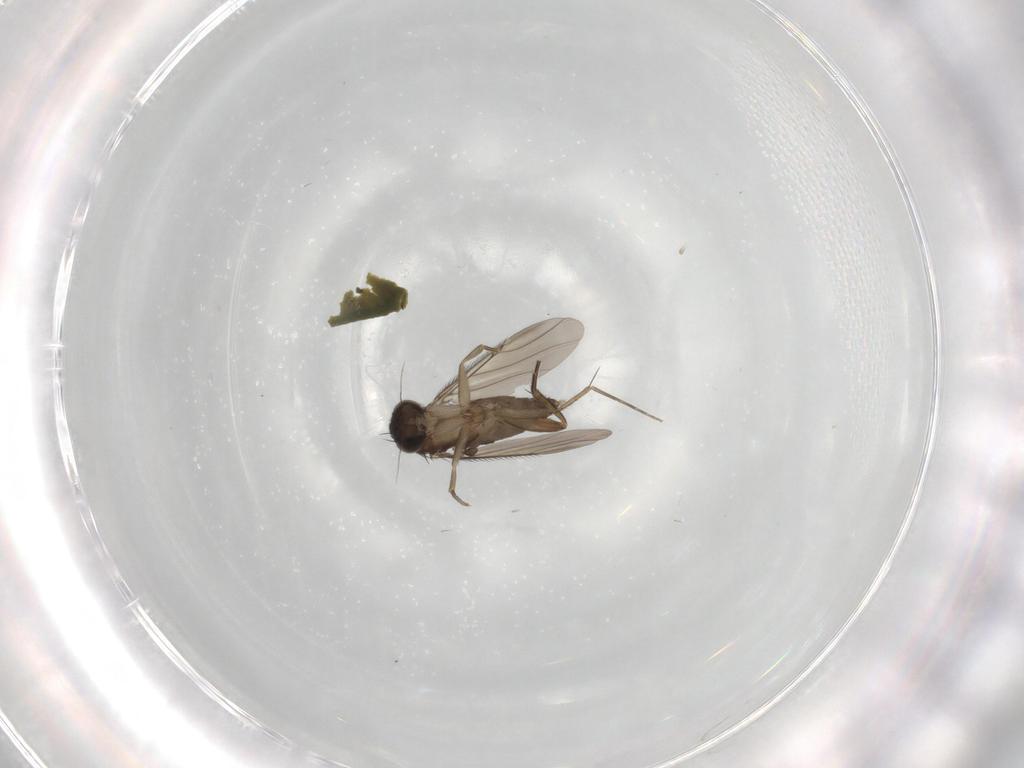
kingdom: Animalia
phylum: Arthropoda
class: Insecta
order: Diptera
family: Phoridae
